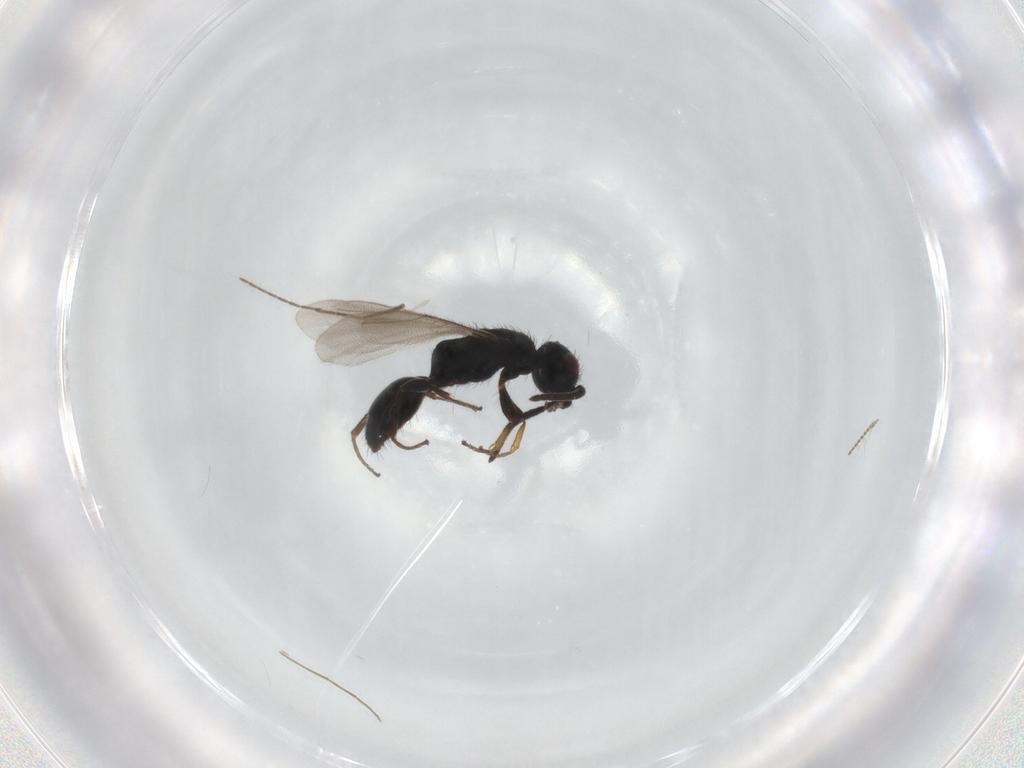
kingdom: Animalia
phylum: Arthropoda
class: Insecta
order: Hymenoptera
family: Bethylidae
